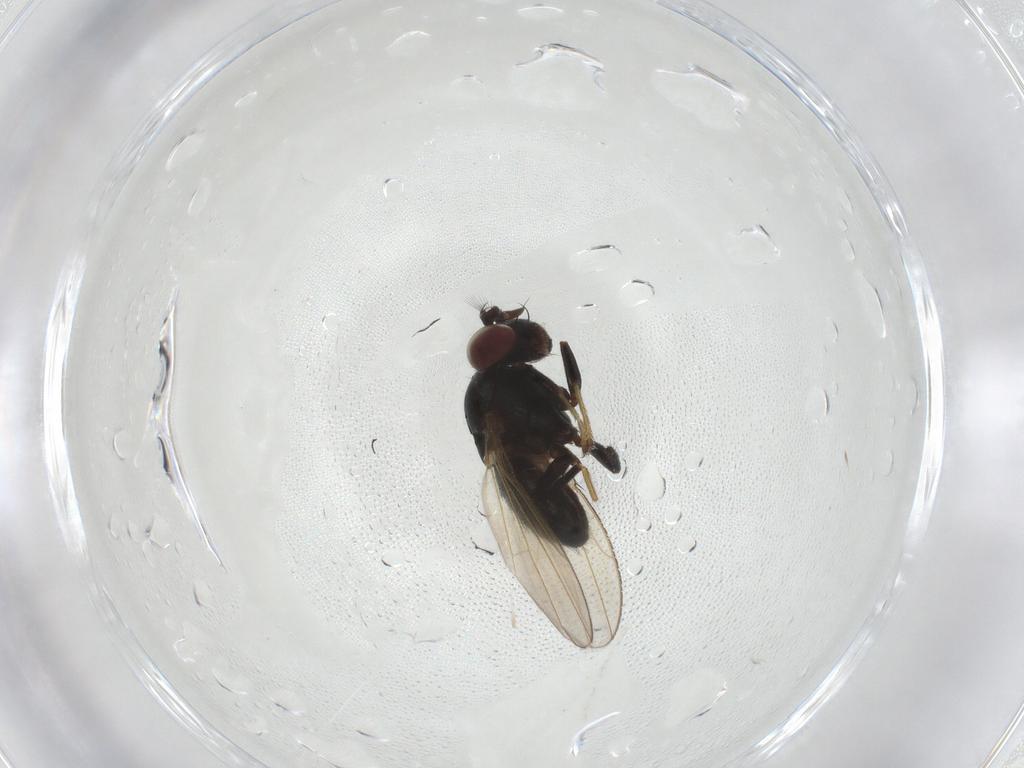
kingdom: Animalia
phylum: Arthropoda
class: Insecta
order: Diptera
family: Ephydridae
